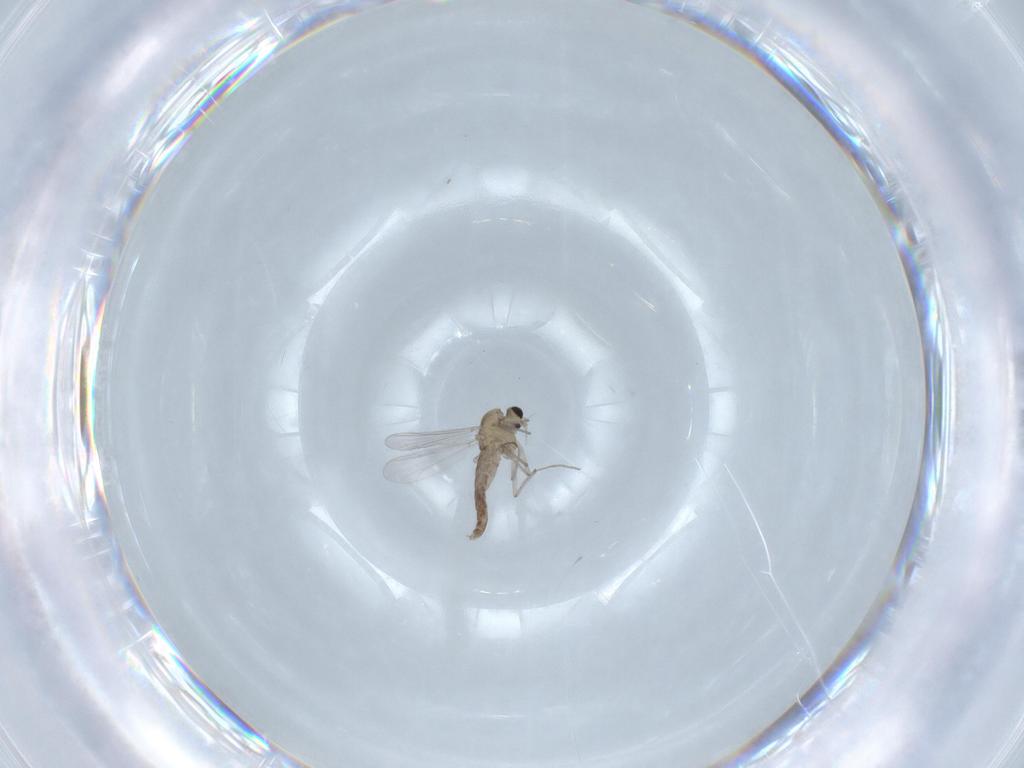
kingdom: Animalia
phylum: Arthropoda
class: Insecta
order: Diptera
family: Chironomidae
